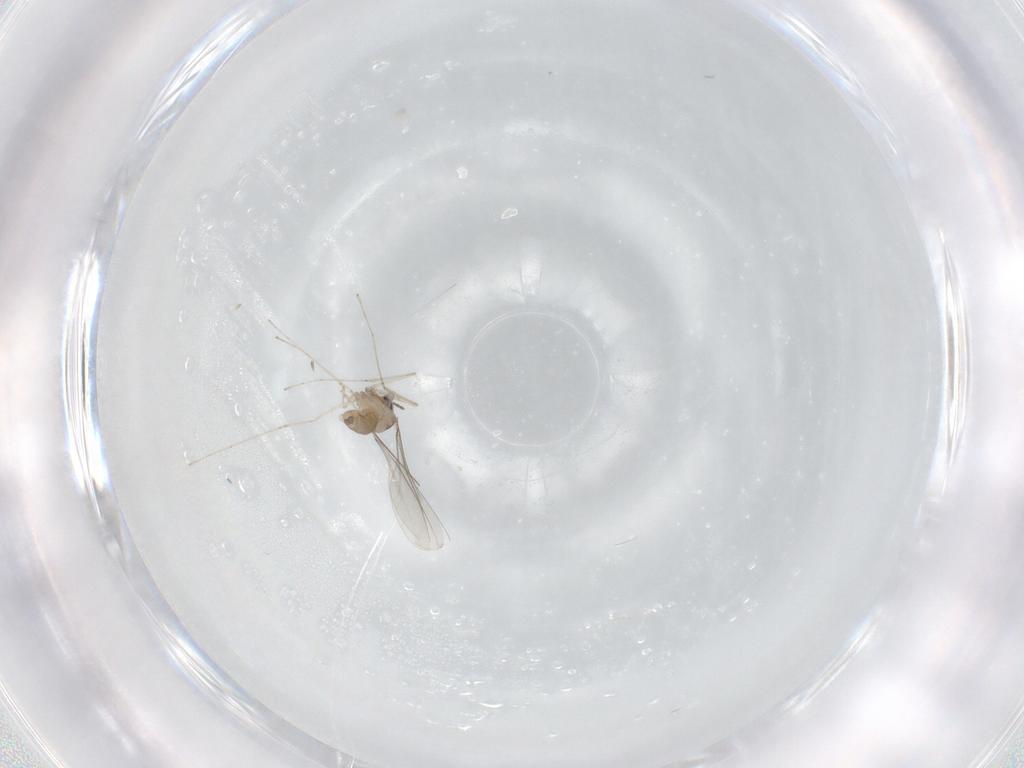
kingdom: Animalia
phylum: Arthropoda
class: Insecta
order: Diptera
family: Cecidomyiidae
